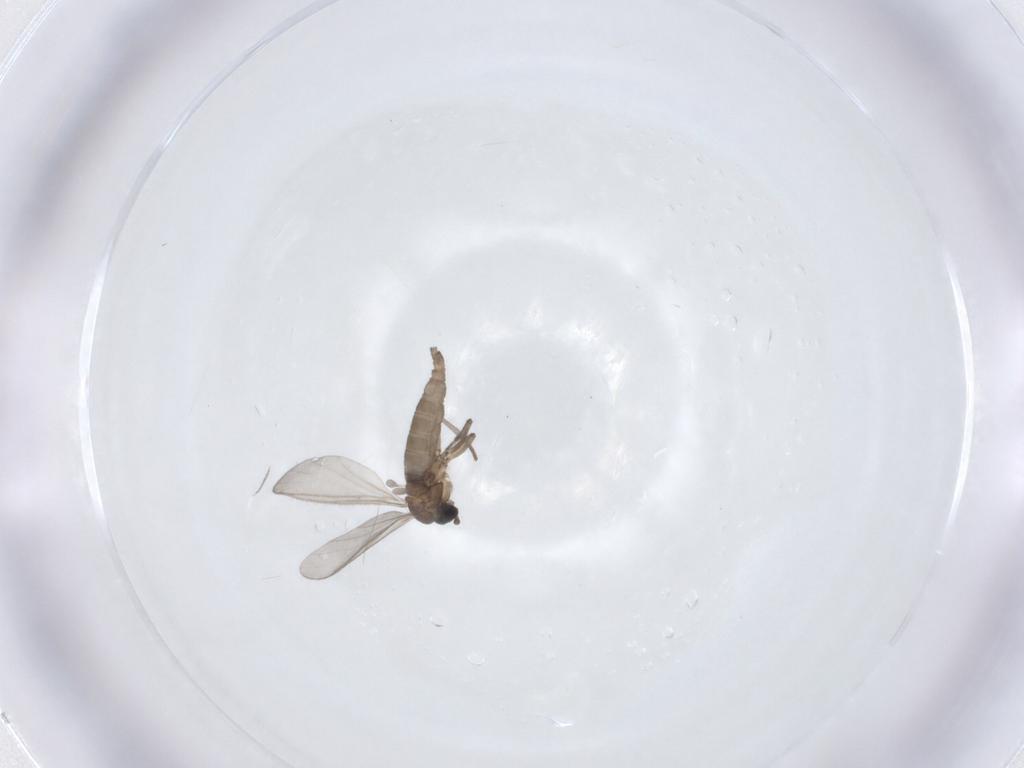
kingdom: Animalia
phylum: Arthropoda
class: Insecta
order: Diptera
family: Sciaridae
